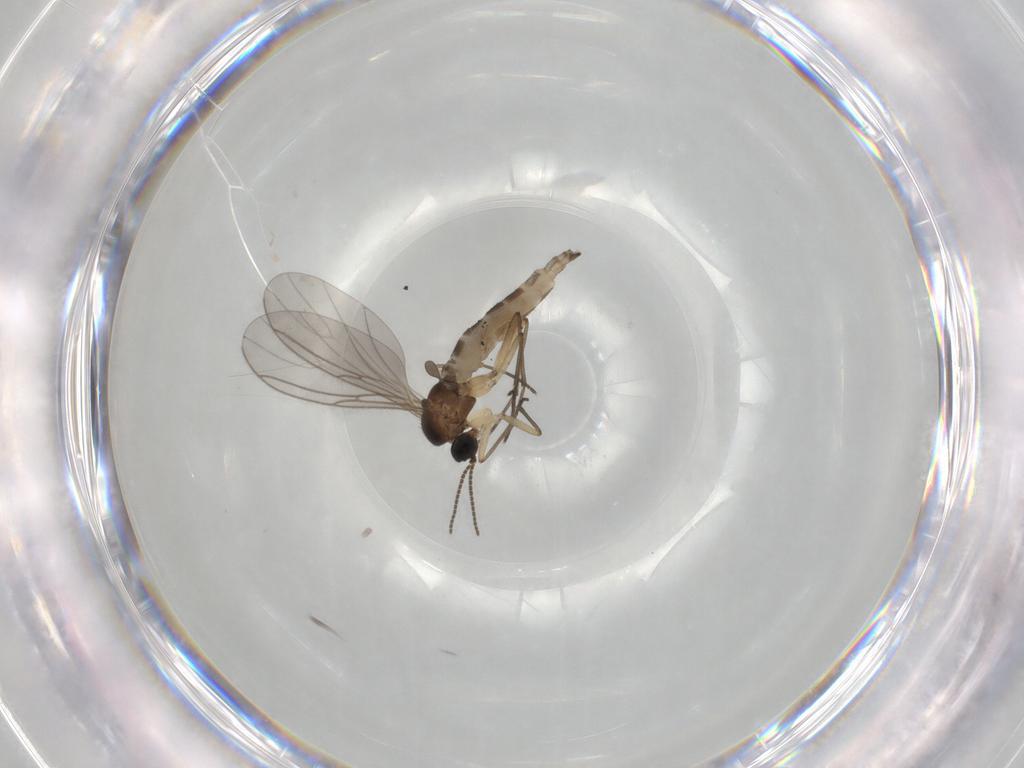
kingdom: Animalia
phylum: Arthropoda
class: Insecta
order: Diptera
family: Sciaridae
